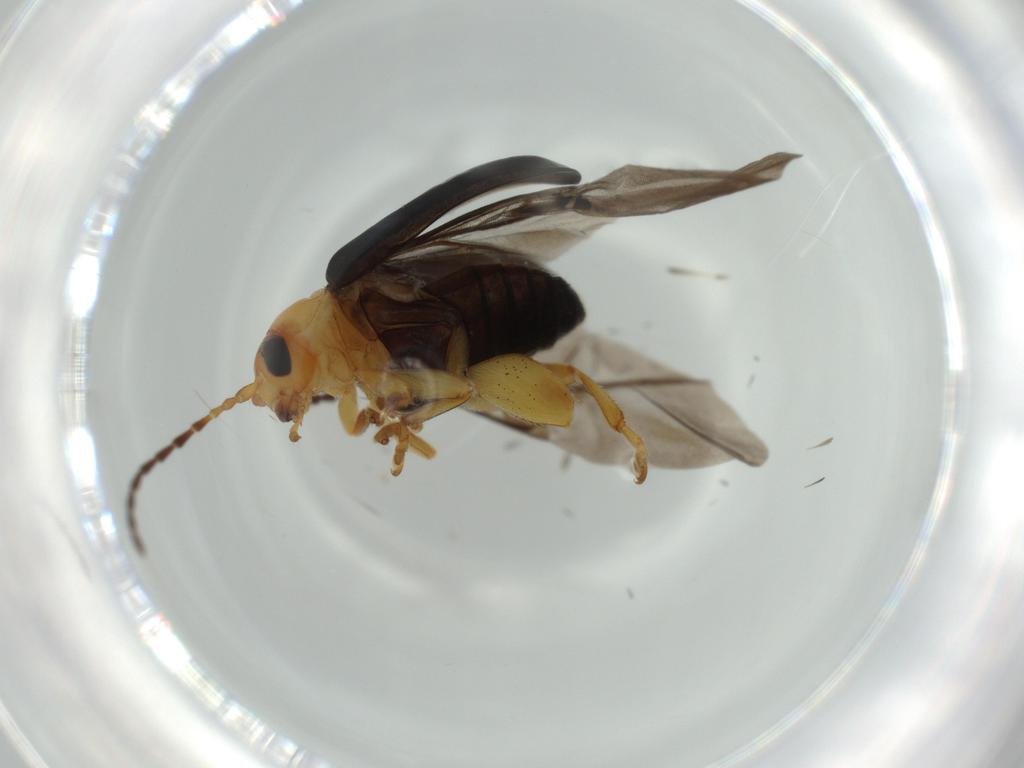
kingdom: Animalia
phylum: Arthropoda
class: Insecta
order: Coleoptera
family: Chrysomelidae
